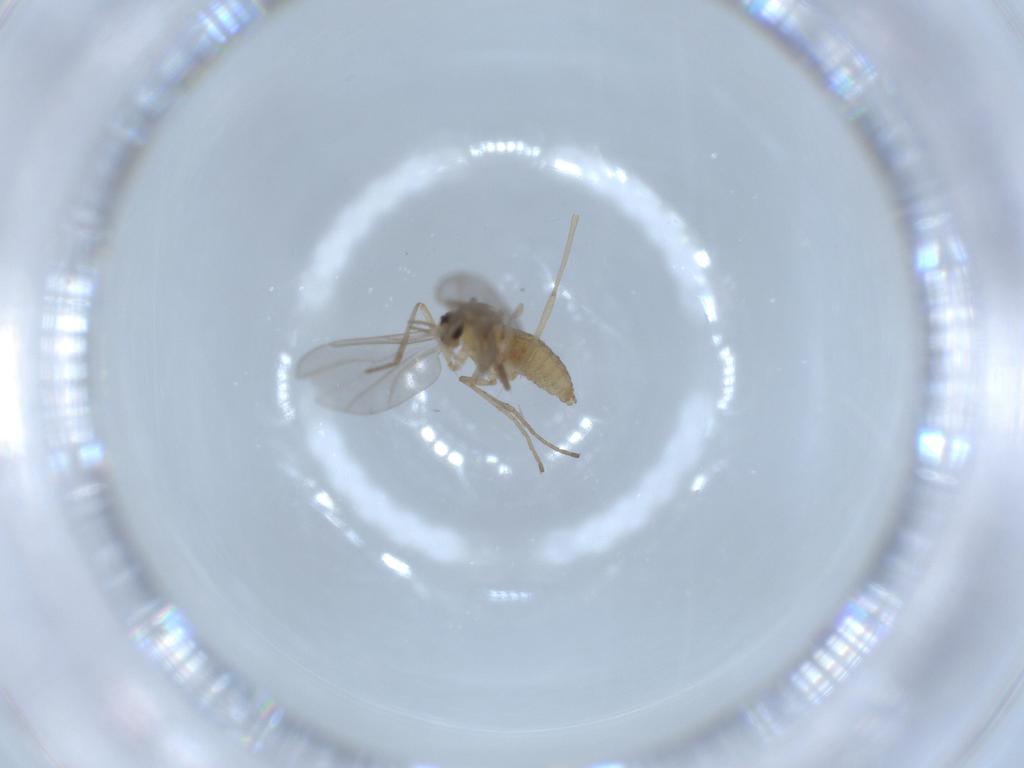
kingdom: Animalia
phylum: Arthropoda
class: Insecta
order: Diptera
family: Cecidomyiidae
